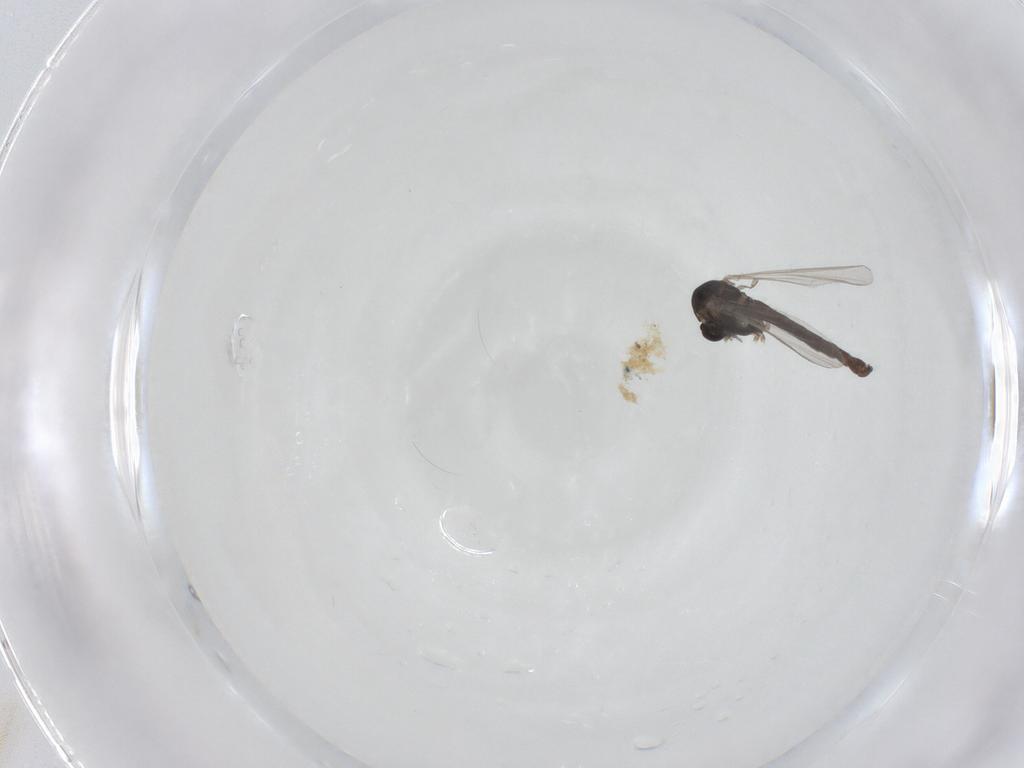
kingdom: Animalia
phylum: Arthropoda
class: Insecta
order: Diptera
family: Chironomidae
